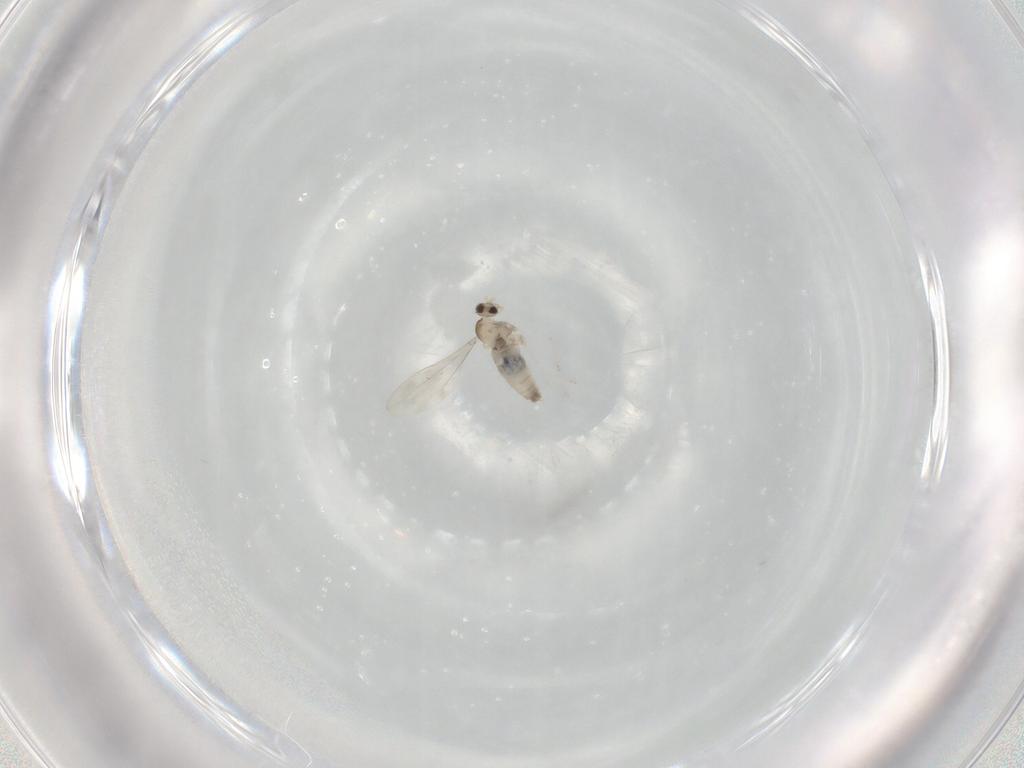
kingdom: Animalia
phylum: Arthropoda
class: Insecta
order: Diptera
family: Cecidomyiidae
